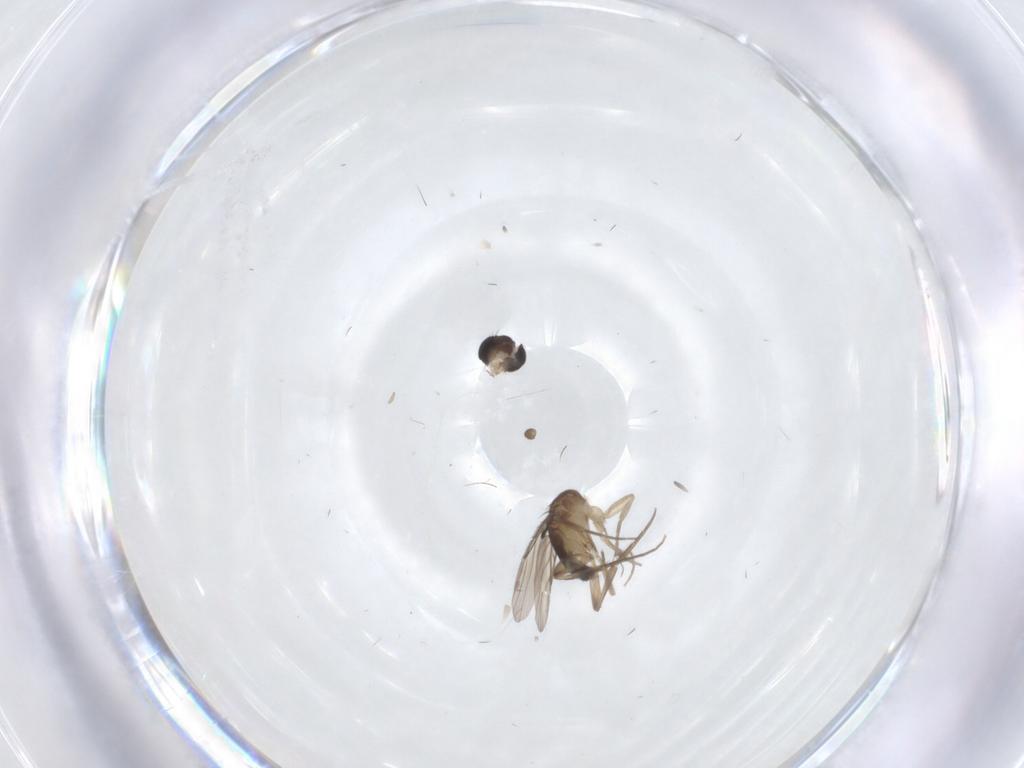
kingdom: Animalia
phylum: Arthropoda
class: Insecta
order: Diptera
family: Phoridae
